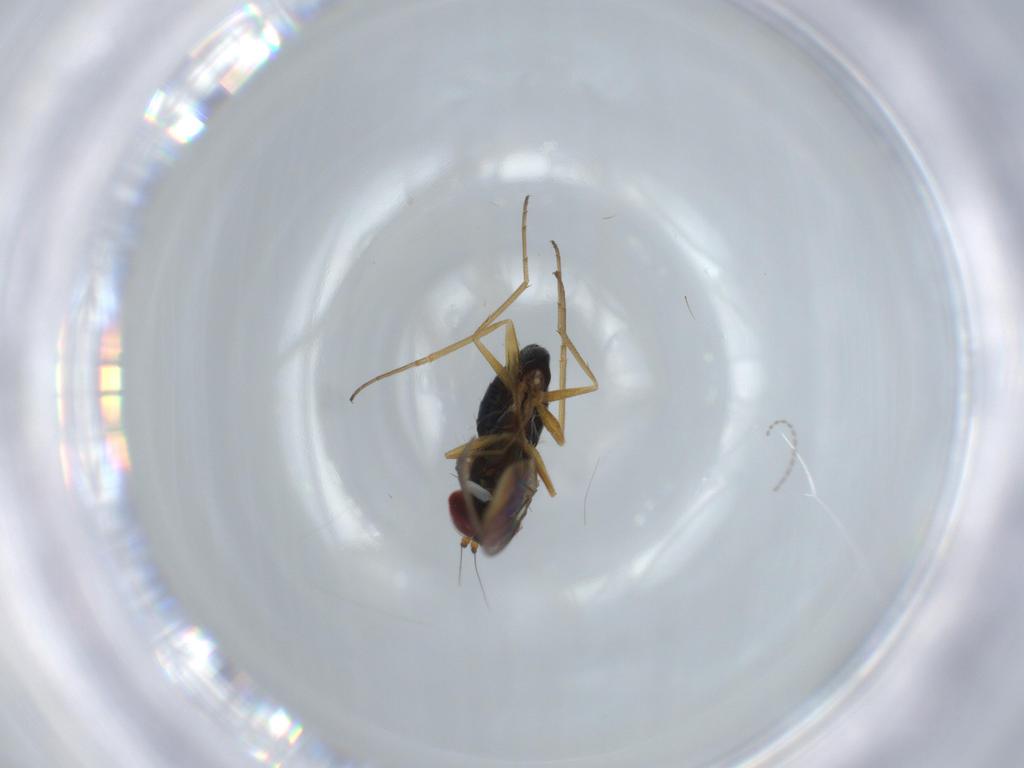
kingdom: Animalia
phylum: Arthropoda
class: Insecta
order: Diptera
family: Dolichopodidae
